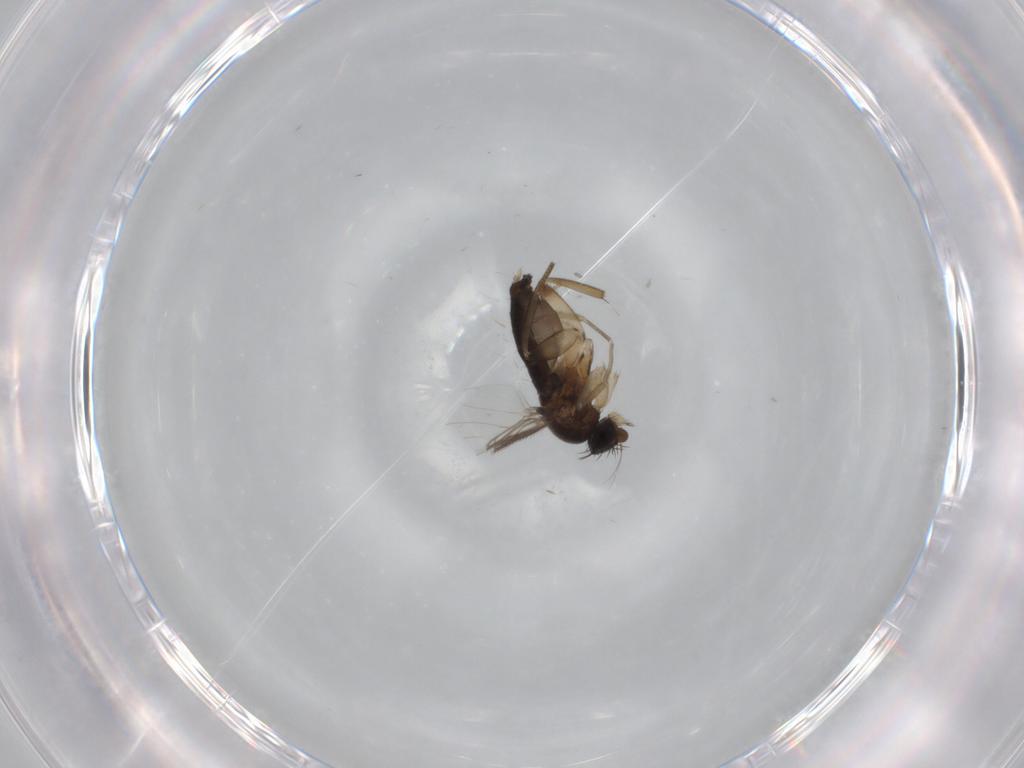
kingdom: Animalia
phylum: Arthropoda
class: Insecta
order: Diptera
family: Phoridae
